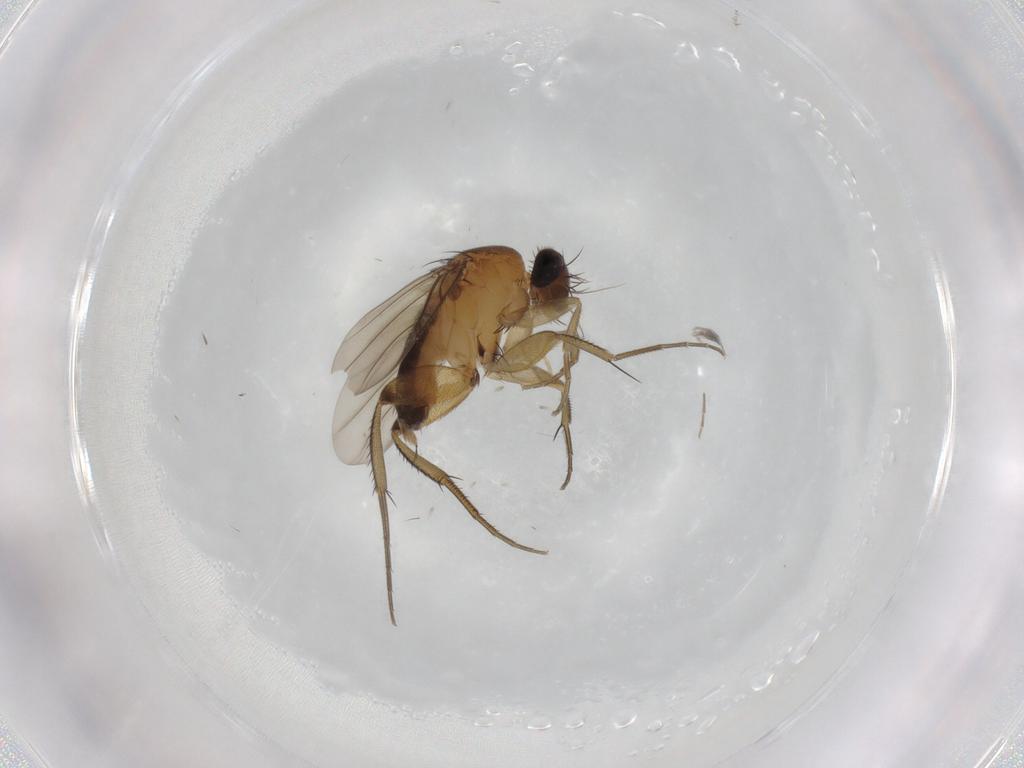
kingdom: Animalia
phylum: Arthropoda
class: Insecta
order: Diptera
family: Phoridae
